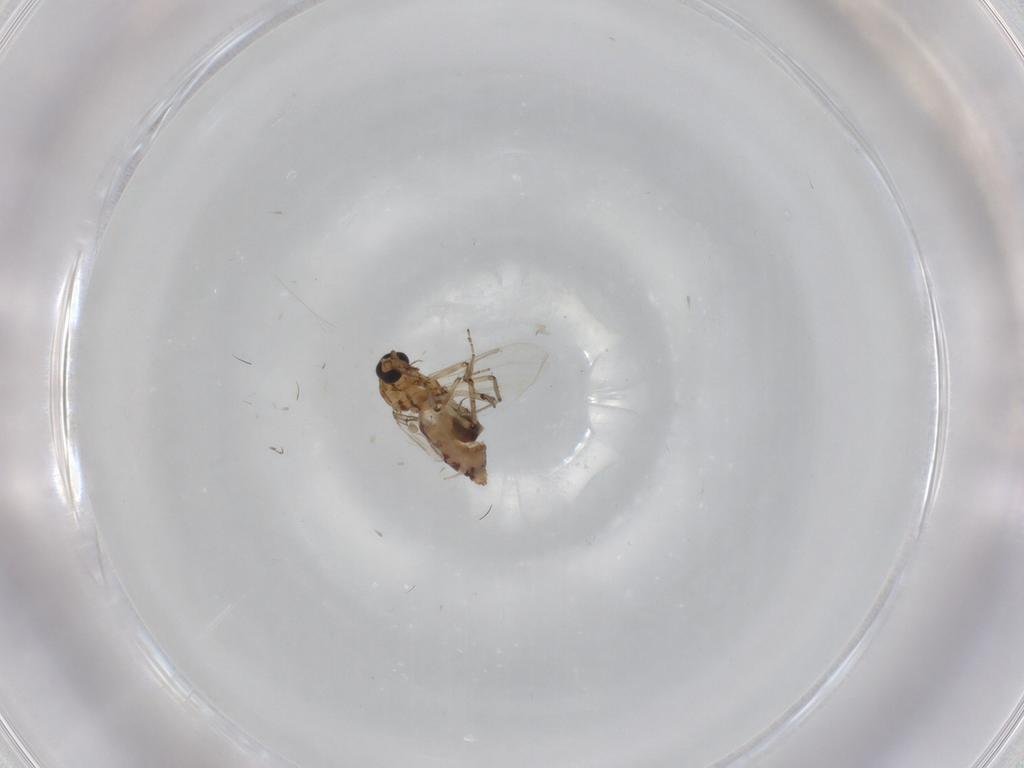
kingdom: Animalia
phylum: Arthropoda
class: Insecta
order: Diptera
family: Ceratopogonidae
